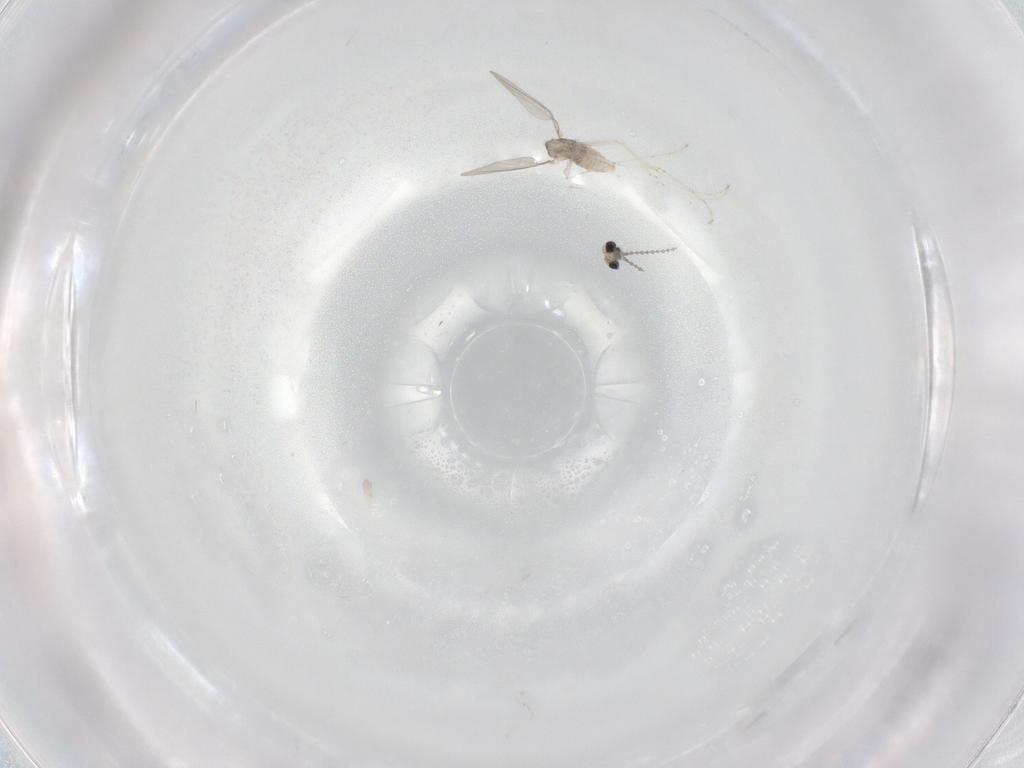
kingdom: Animalia
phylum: Arthropoda
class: Insecta
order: Diptera
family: Cecidomyiidae
